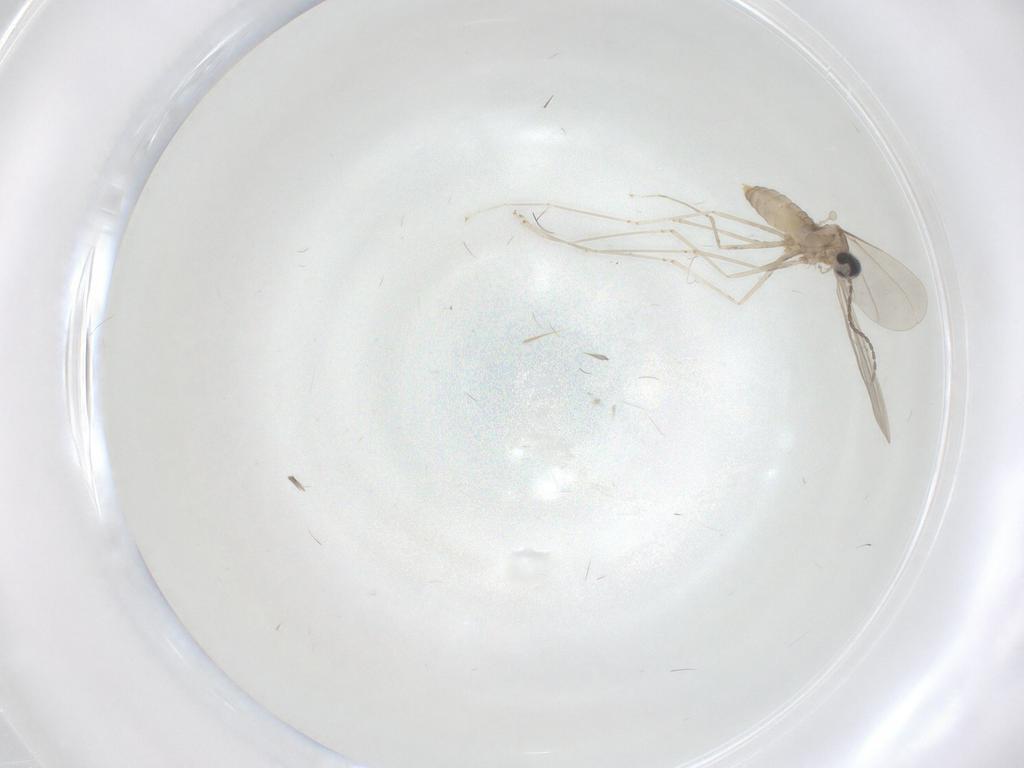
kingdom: Animalia
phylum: Arthropoda
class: Insecta
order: Diptera
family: Cecidomyiidae
